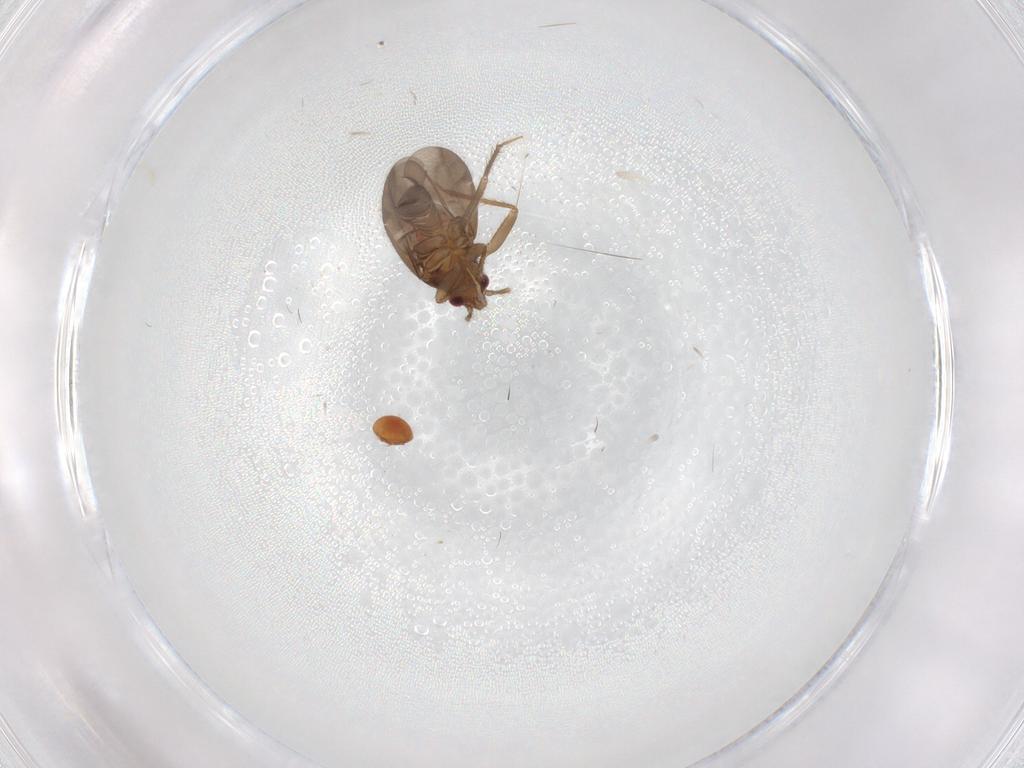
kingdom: Animalia
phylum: Arthropoda
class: Insecta
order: Hemiptera
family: Ceratocombidae
